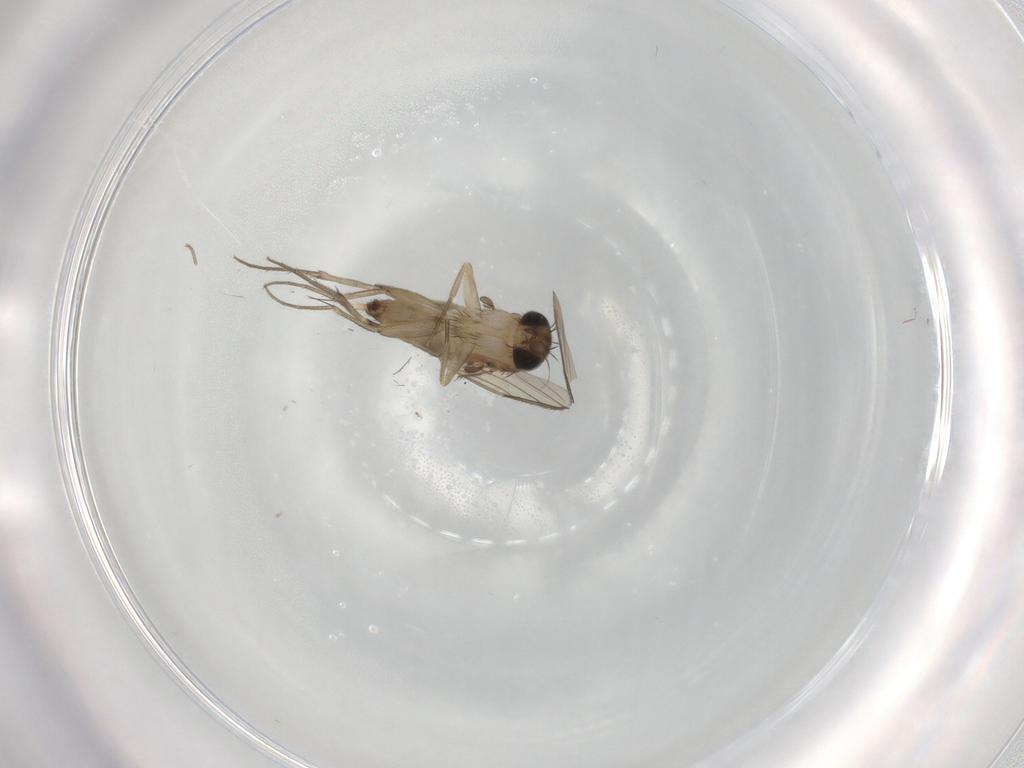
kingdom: Animalia
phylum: Arthropoda
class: Insecta
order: Diptera
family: Phoridae
